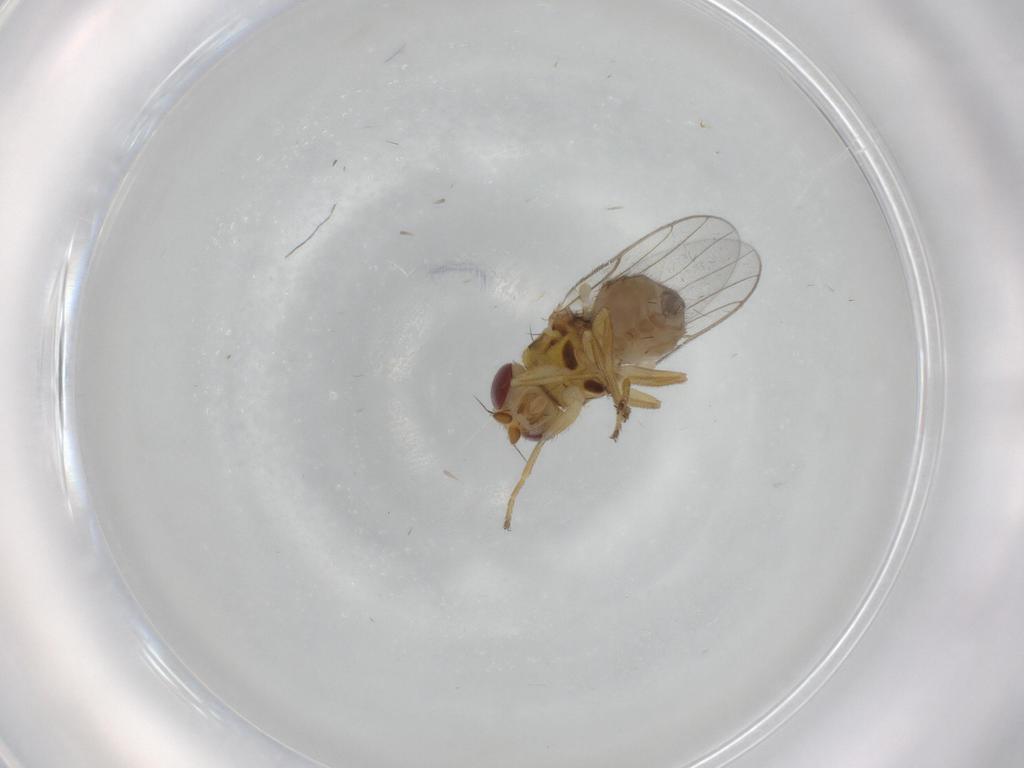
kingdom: Animalia
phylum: Arthropoda
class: Insecta
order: Diptera
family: Chloropidae
